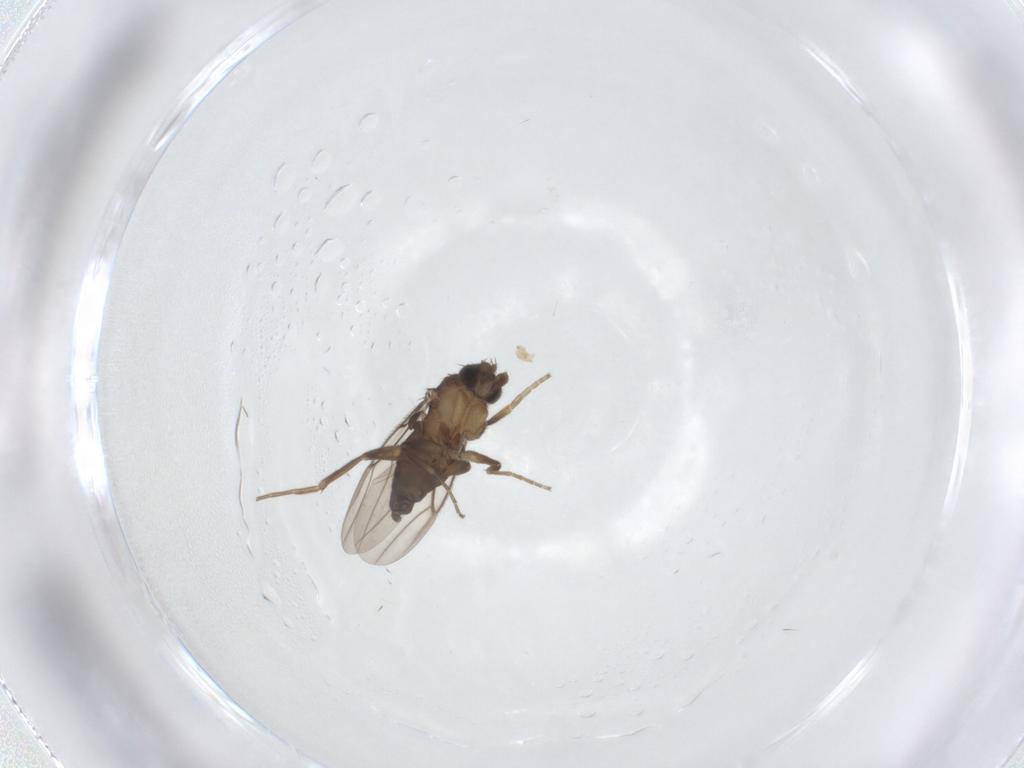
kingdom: Animalia
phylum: Arthropoda
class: Insecta
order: Diptera
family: Phoridae
